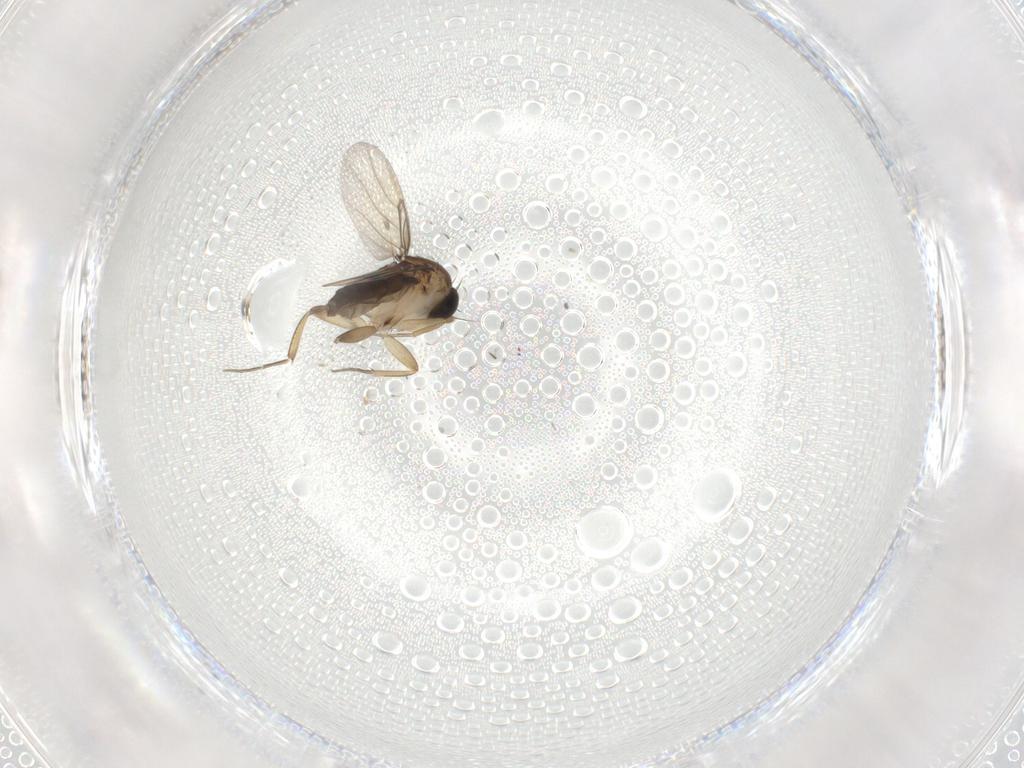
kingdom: Animalia
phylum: Arthropoda
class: Insecta
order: Diptera
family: Phoridae
